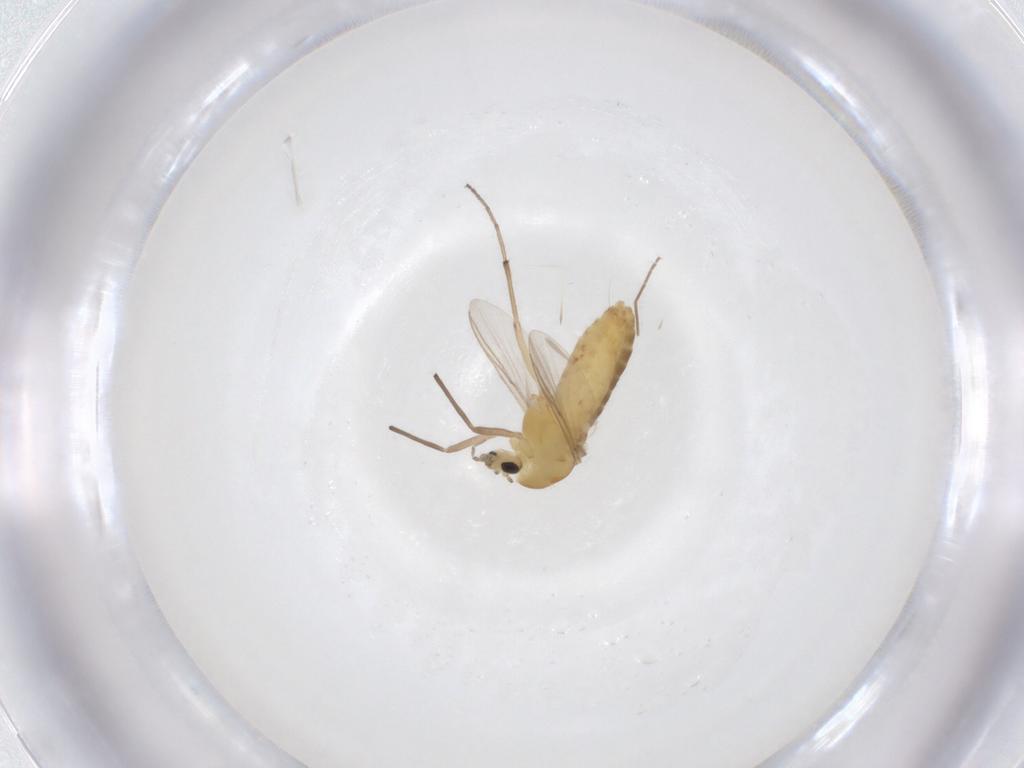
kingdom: Animalia
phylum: Arthropoda
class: Insecta
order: Diptera
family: Chironomidae
